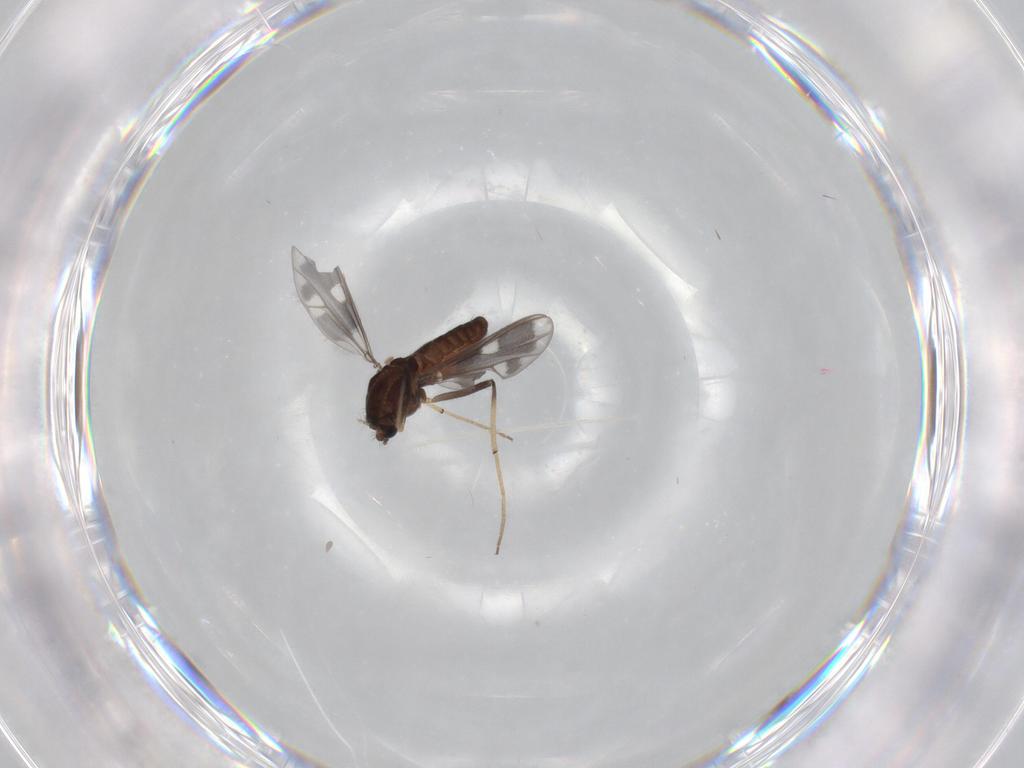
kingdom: Animalia
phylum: Arthropoda
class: Insecta
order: Diptera
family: Chironomidae
